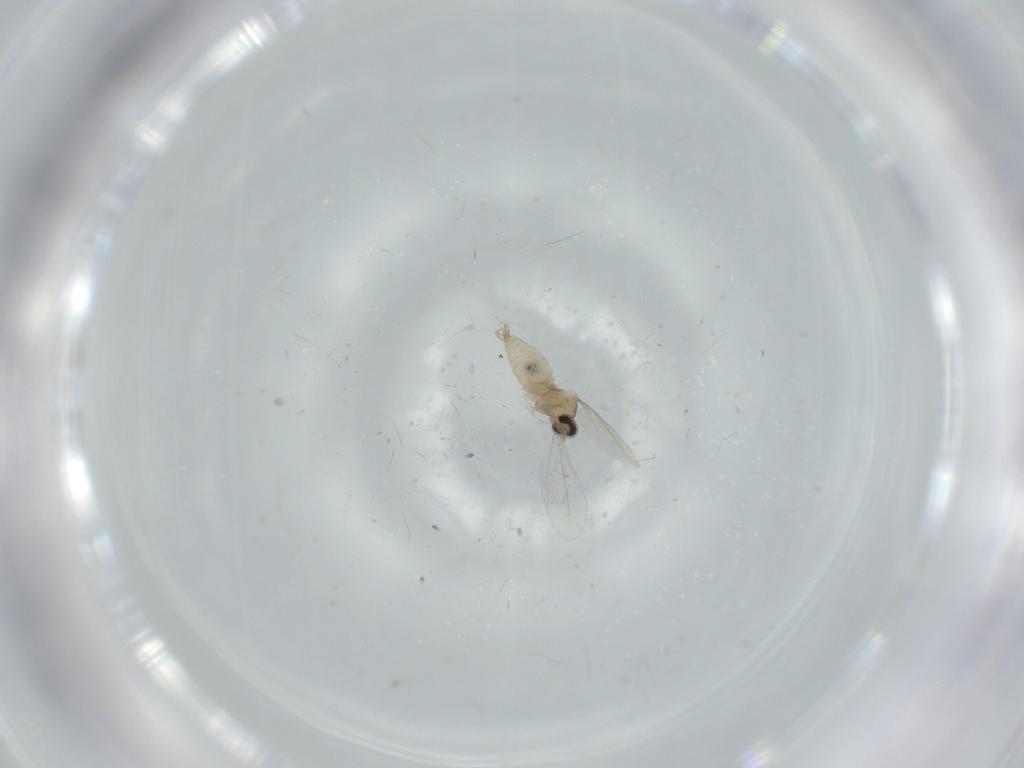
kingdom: Animalia
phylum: Arthropoda
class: Insecta
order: Diptera
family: Cecidomyiidae
